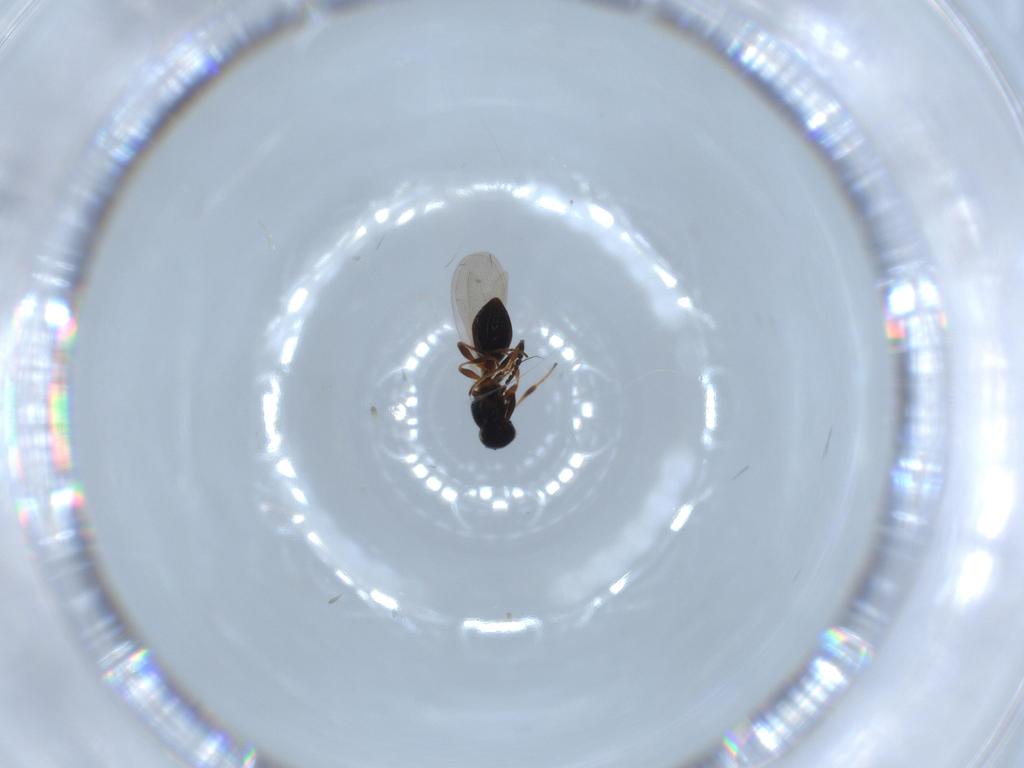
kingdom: Animalia
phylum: Arthropoda
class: Insecta
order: Hymenoptera
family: Platygastridae
